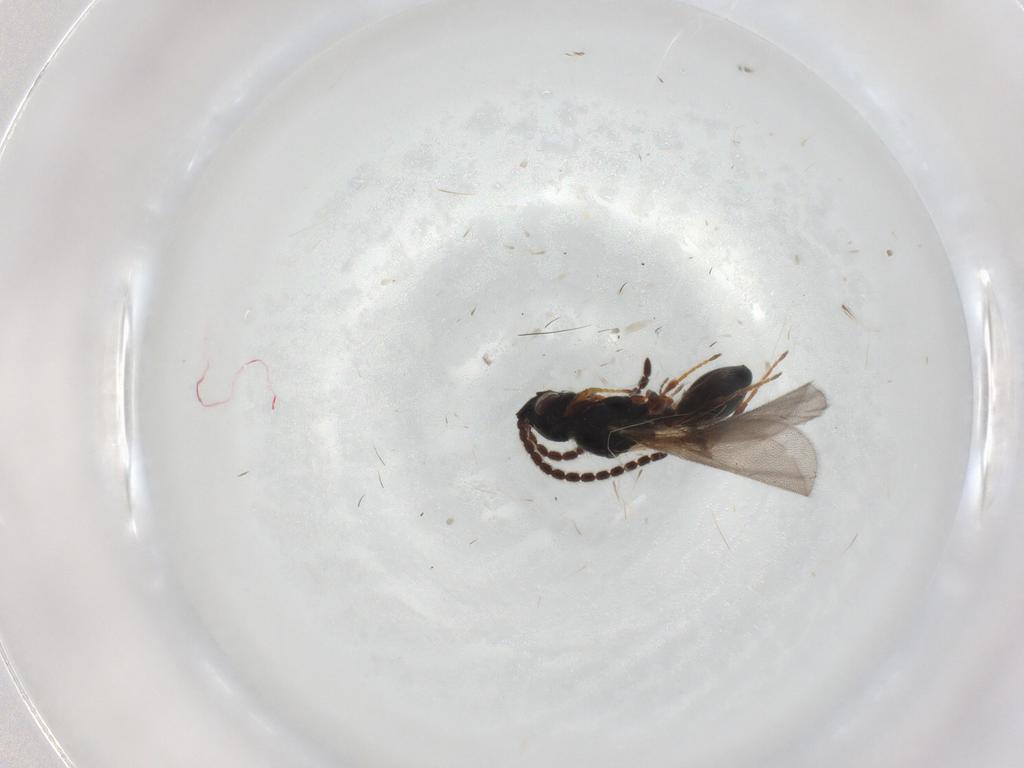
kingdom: Animalia
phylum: Arthropoda
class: Insecta
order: Hymenoptera
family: Diapriidae
